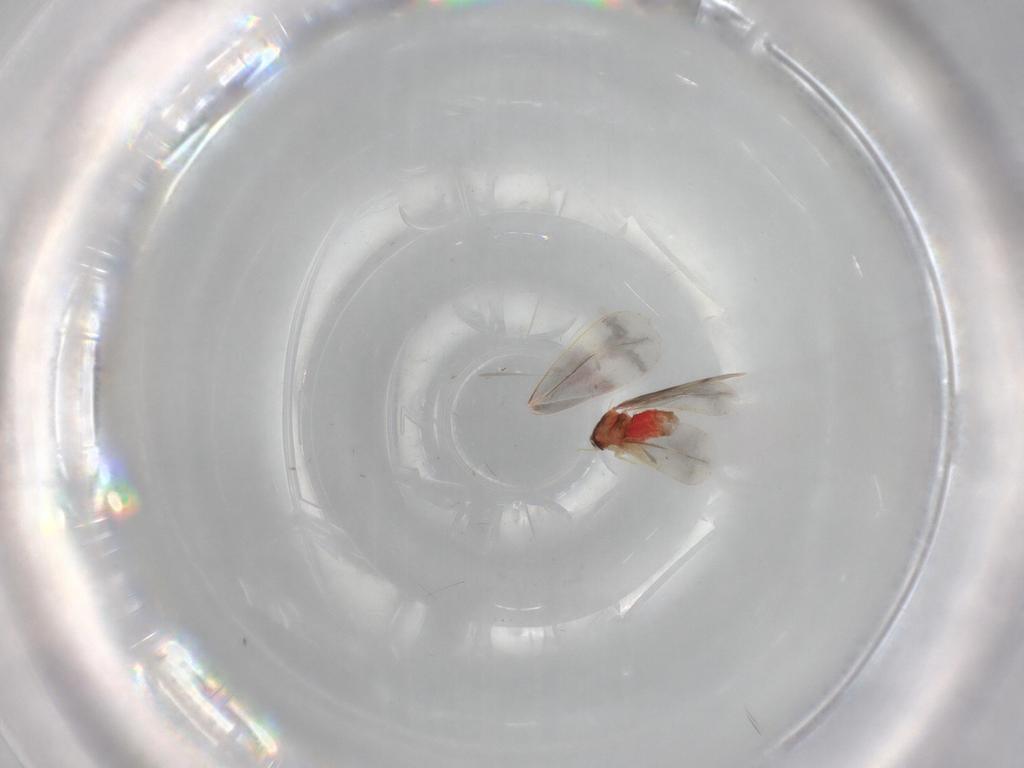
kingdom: Animalia
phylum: Arthropoda
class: Insecta
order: Hemiptera
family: Aleyrodidae
